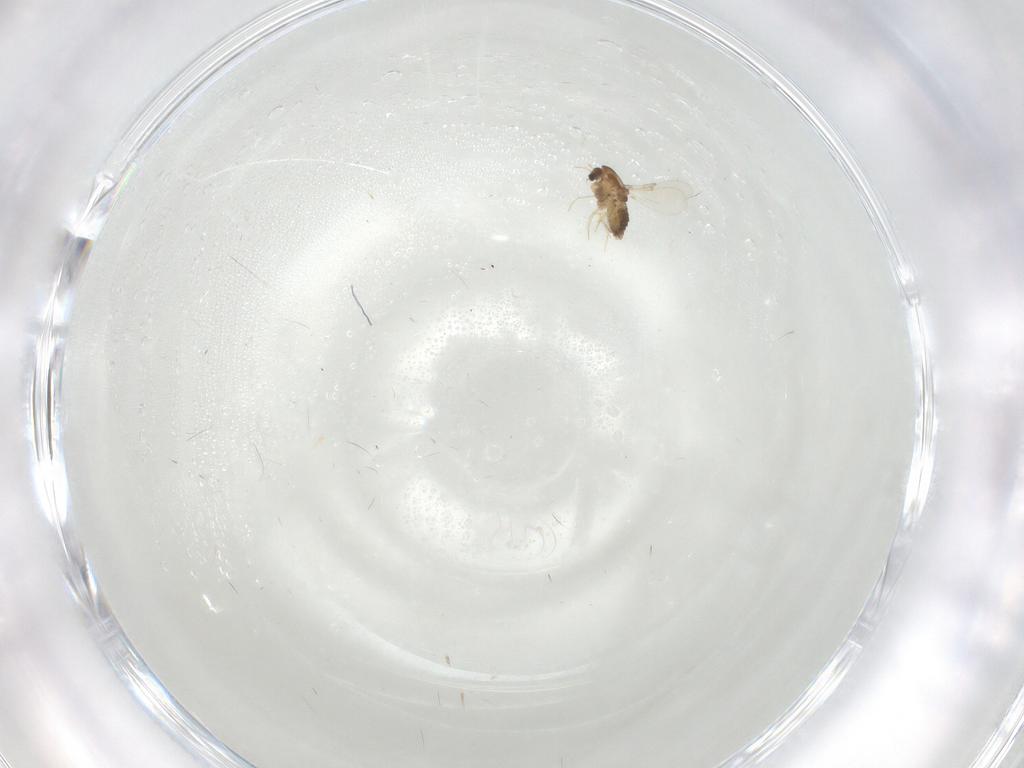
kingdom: Animalia
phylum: Arthropoda
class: Insecta
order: Diptera
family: Chironomidae
